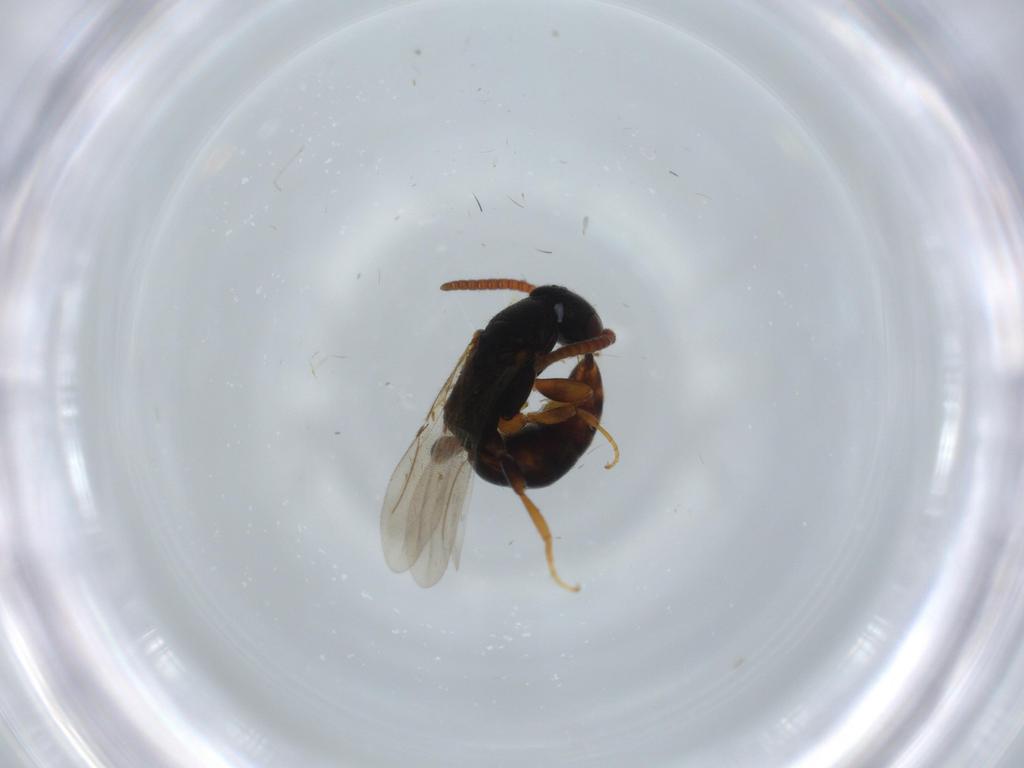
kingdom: Animalia
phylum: Arthropoda
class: Insecta
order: Hymenoptera
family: Bethylidae
